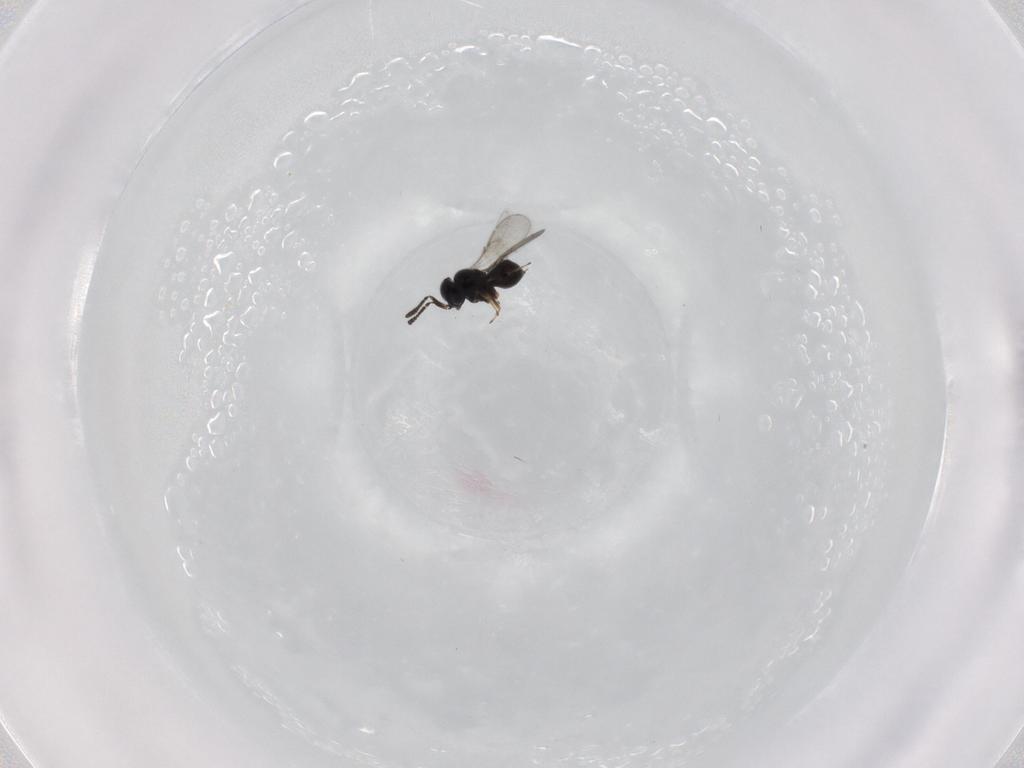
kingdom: Animalia
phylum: Arthropoda
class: Insecta
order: Hymenoptera
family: Scelionidae
